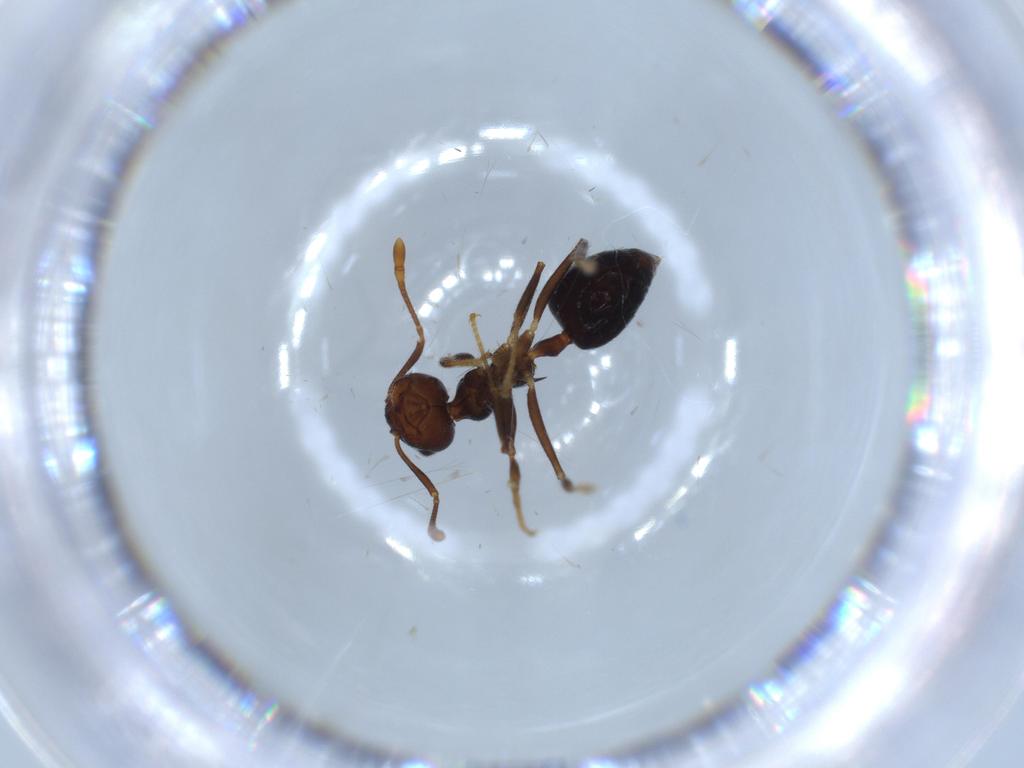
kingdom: Animalia
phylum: Arthropoda
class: Insecta
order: Hymenoptera
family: Formicidae
